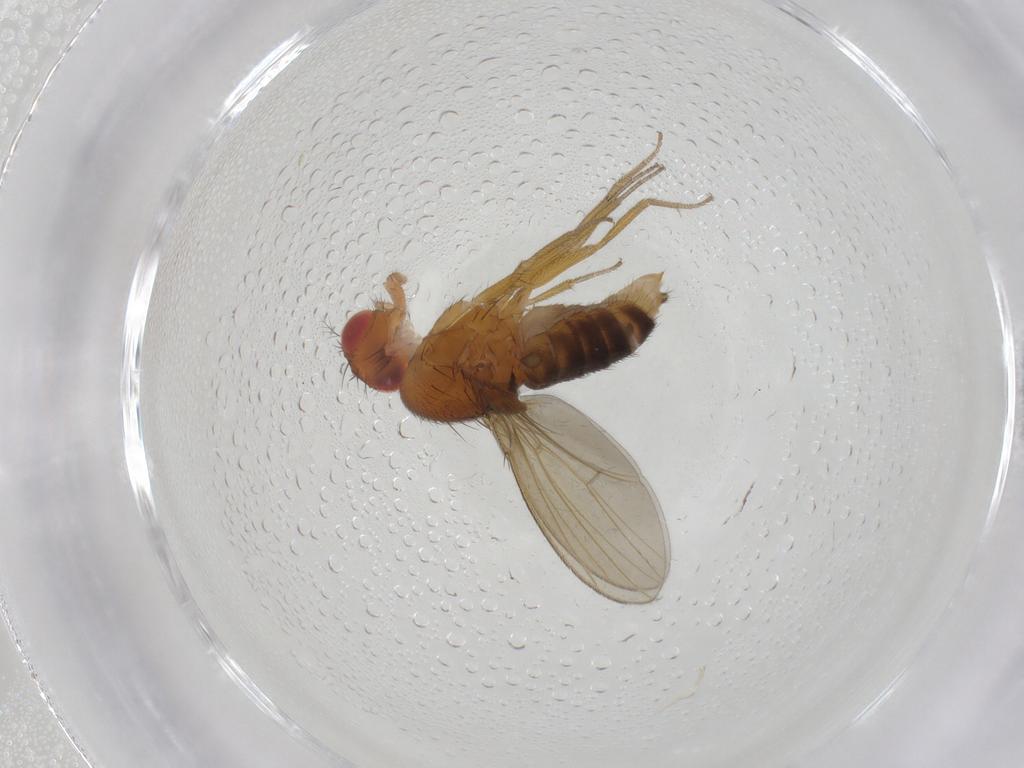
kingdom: Animalia
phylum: Arthropoda
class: Insecta
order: Diptera
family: Drosophilidae
